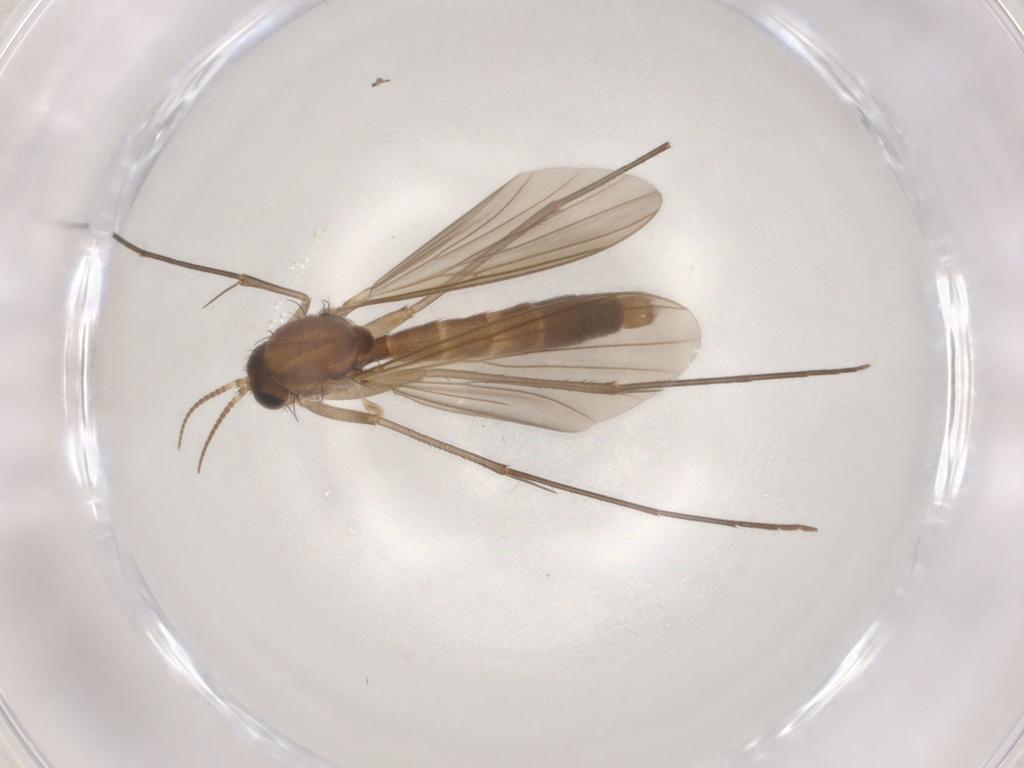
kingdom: Animalia
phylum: Arthropoda
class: Insecta
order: Diptera
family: Chironomidae
